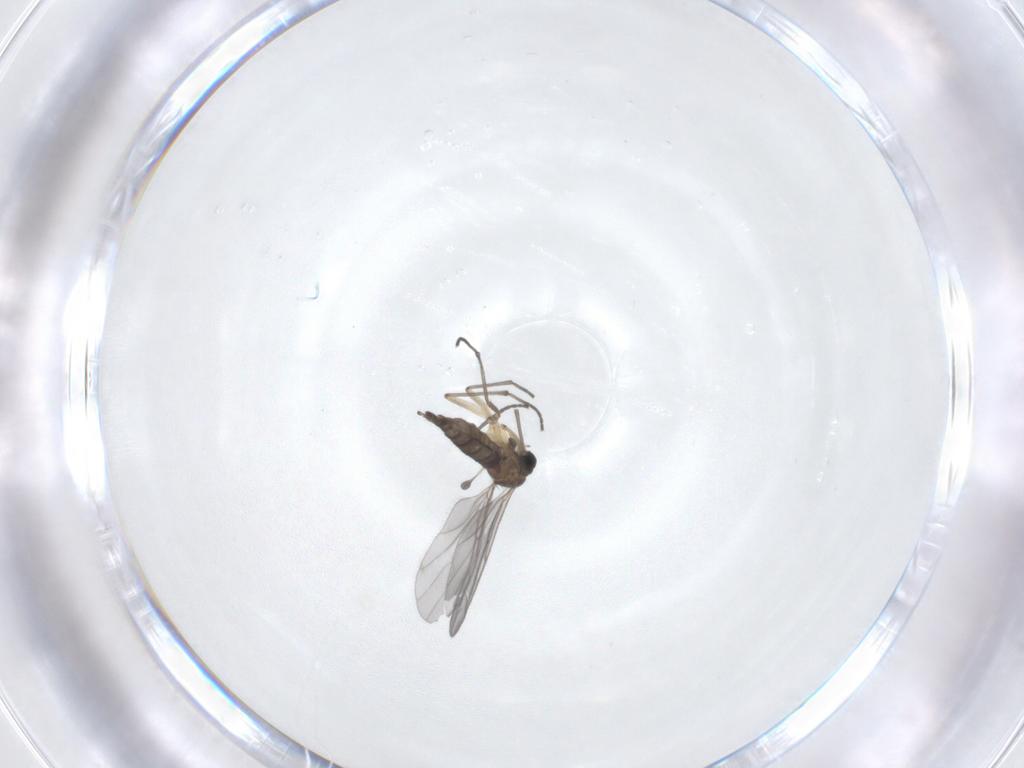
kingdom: Animalia
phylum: Arthropoda
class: Insecta
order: Diptera
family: Sciaridae
